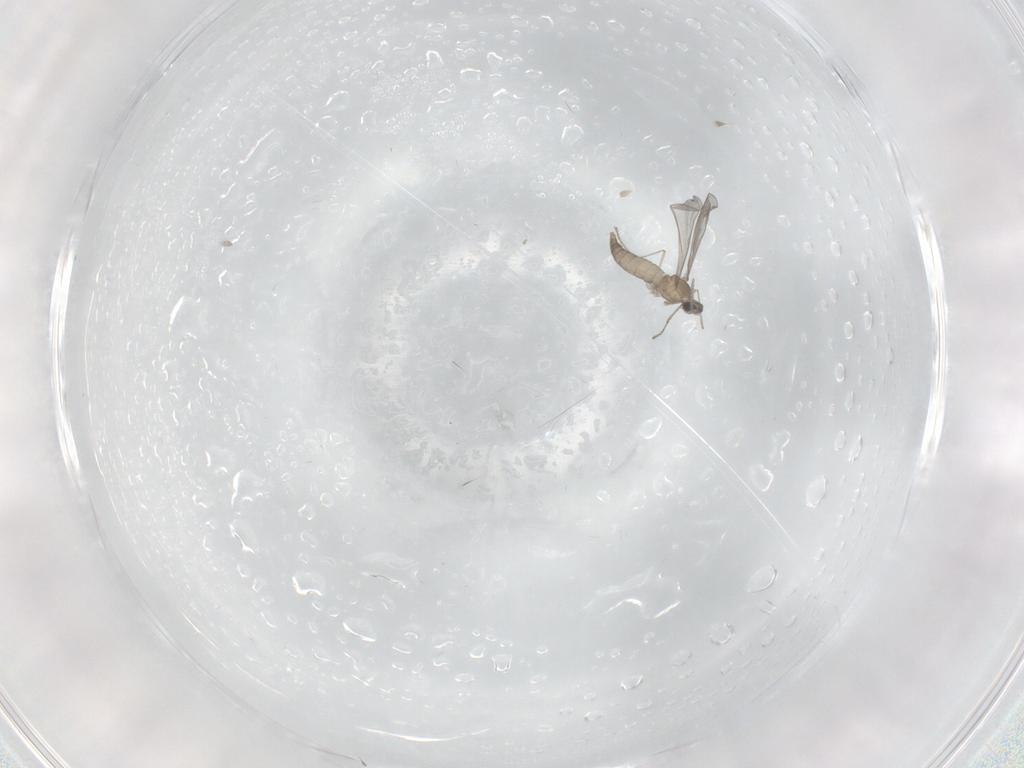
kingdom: Animalia
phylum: Arthropoda
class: Insecta
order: Diptera
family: Cecidomyiidae
